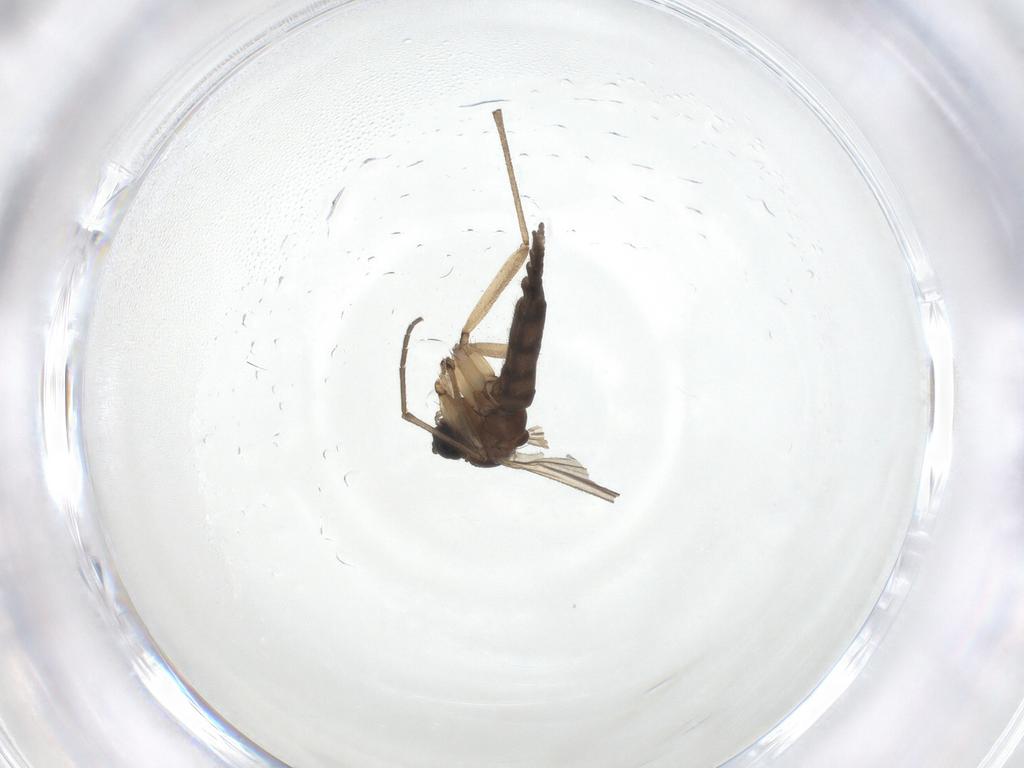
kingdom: Animalia
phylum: Arthropoda
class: Insecta
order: Diptera
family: Sciaridae
